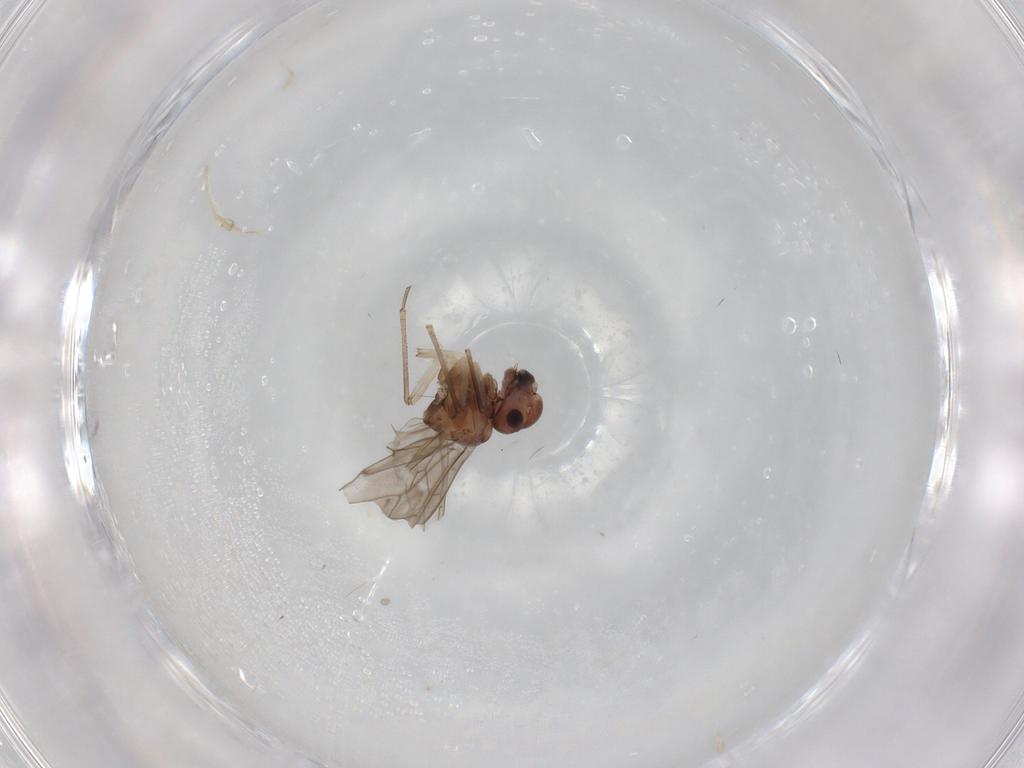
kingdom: Animalia
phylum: Arthropoda
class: Insecta
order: Psocodea
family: Peripsocidae
